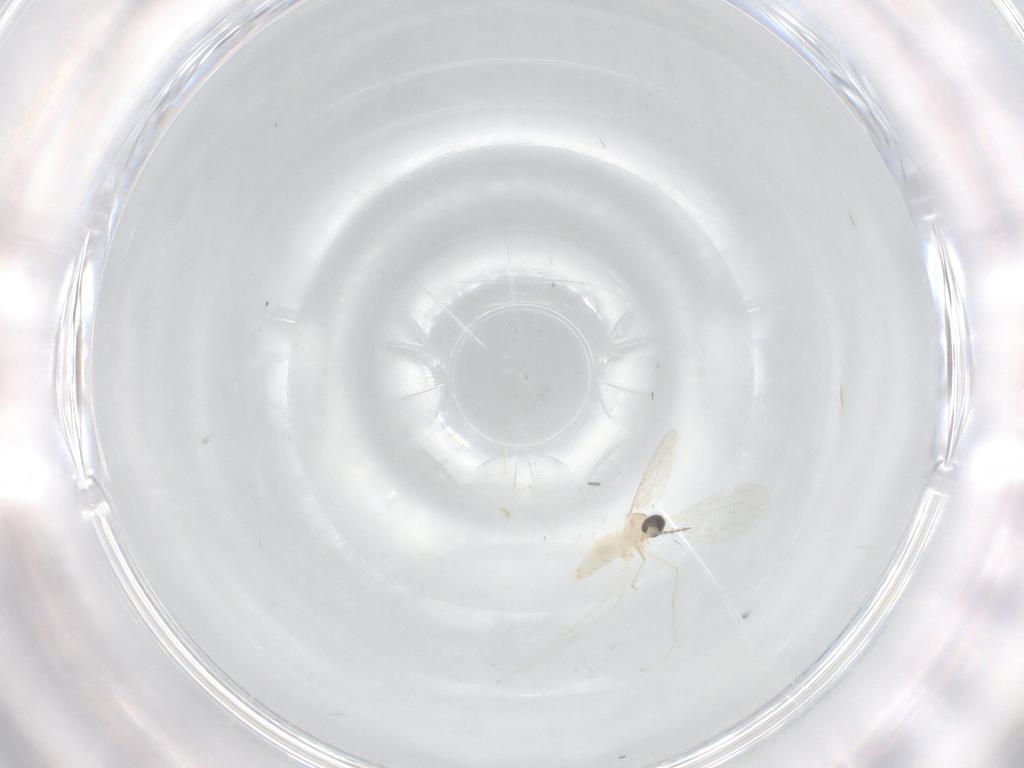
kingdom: Animalia
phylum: Arthropoda
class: Insecta
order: Diptera
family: Cecidomyiidae
